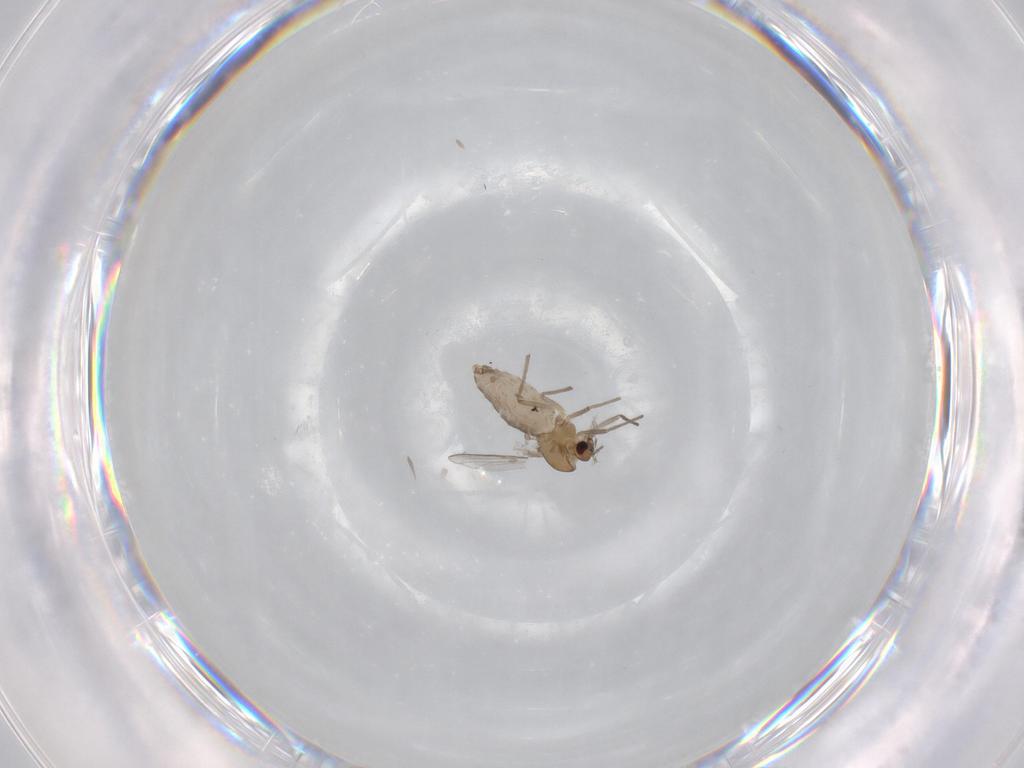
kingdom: Animalia
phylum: Arthropoda
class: Insecta
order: Diptera
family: Chironomidae
